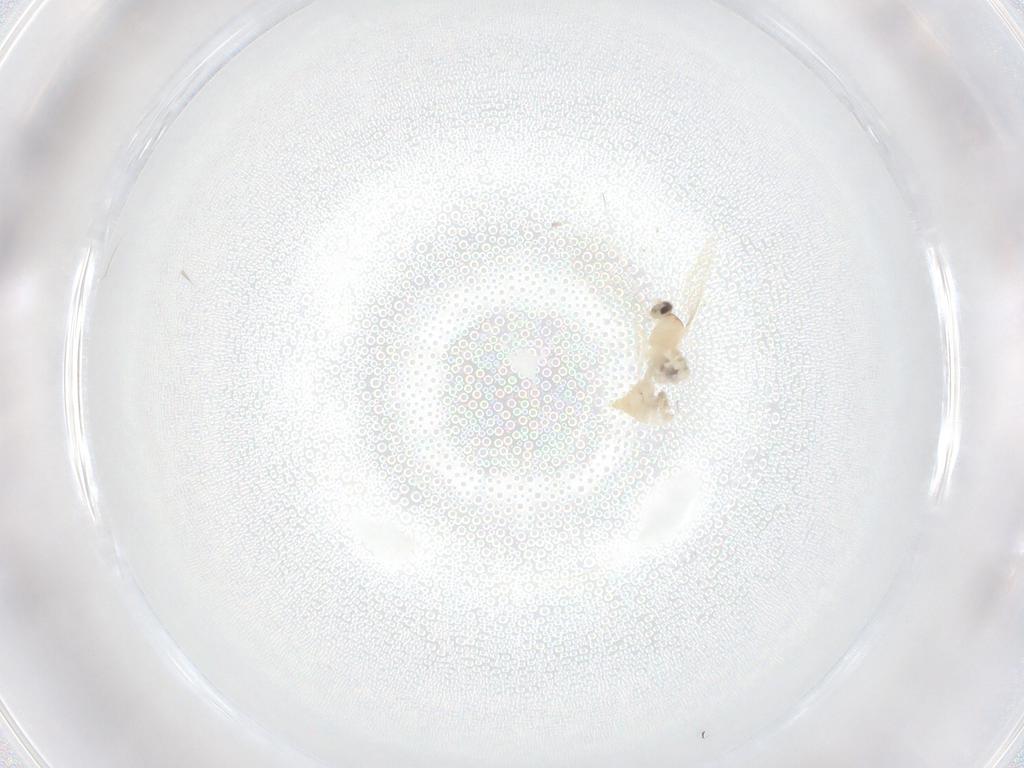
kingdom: Animalia
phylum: Arthropoda
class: Insecta
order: Diptera
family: Cecidomyiidae
